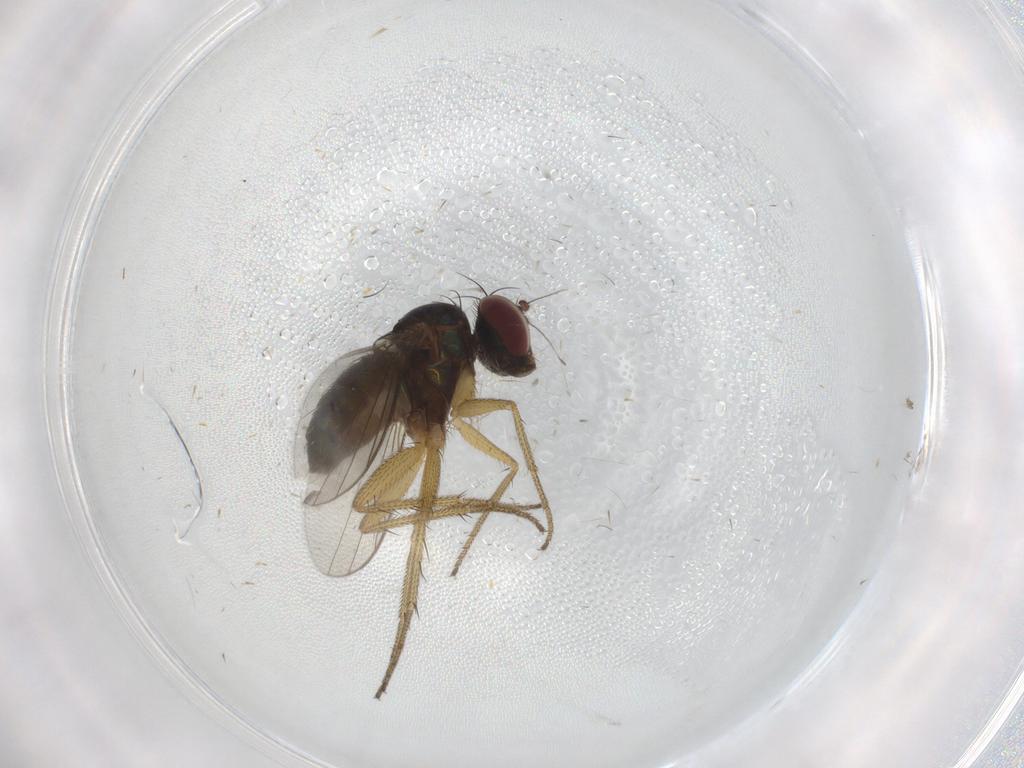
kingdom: Animalia
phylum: Arthropoda
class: Insecta
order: Diptera
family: Dolichopodidae
